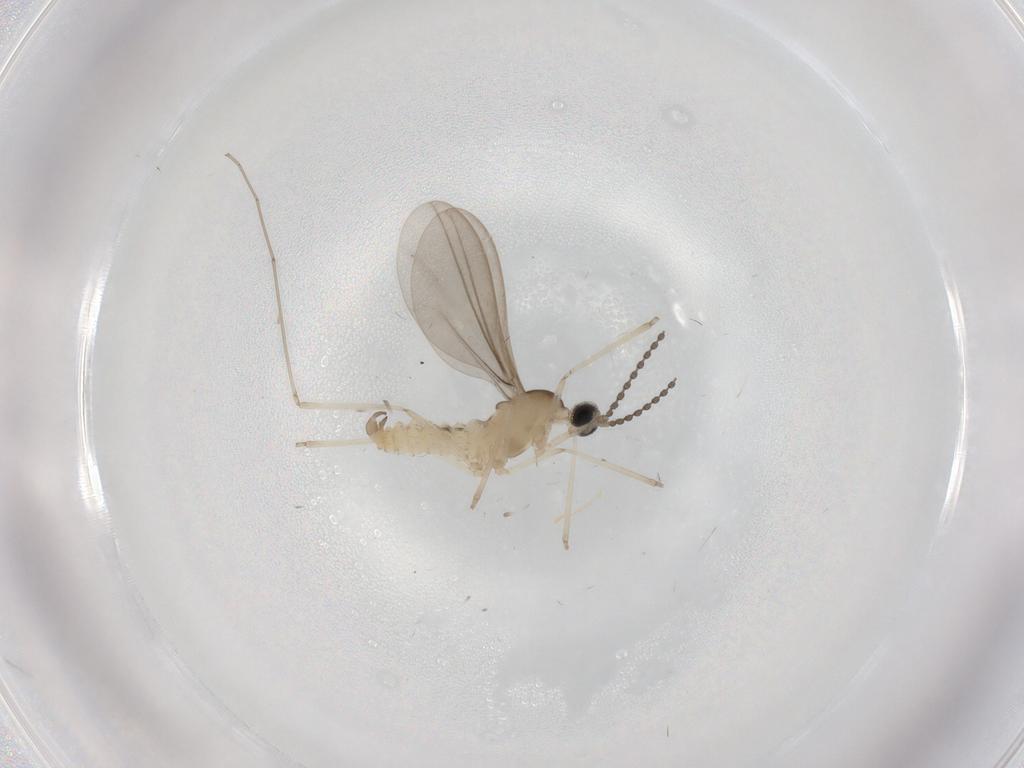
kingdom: Animalia
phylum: Arthropoda
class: Insecta
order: Diptera
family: Cecidomyiidae
